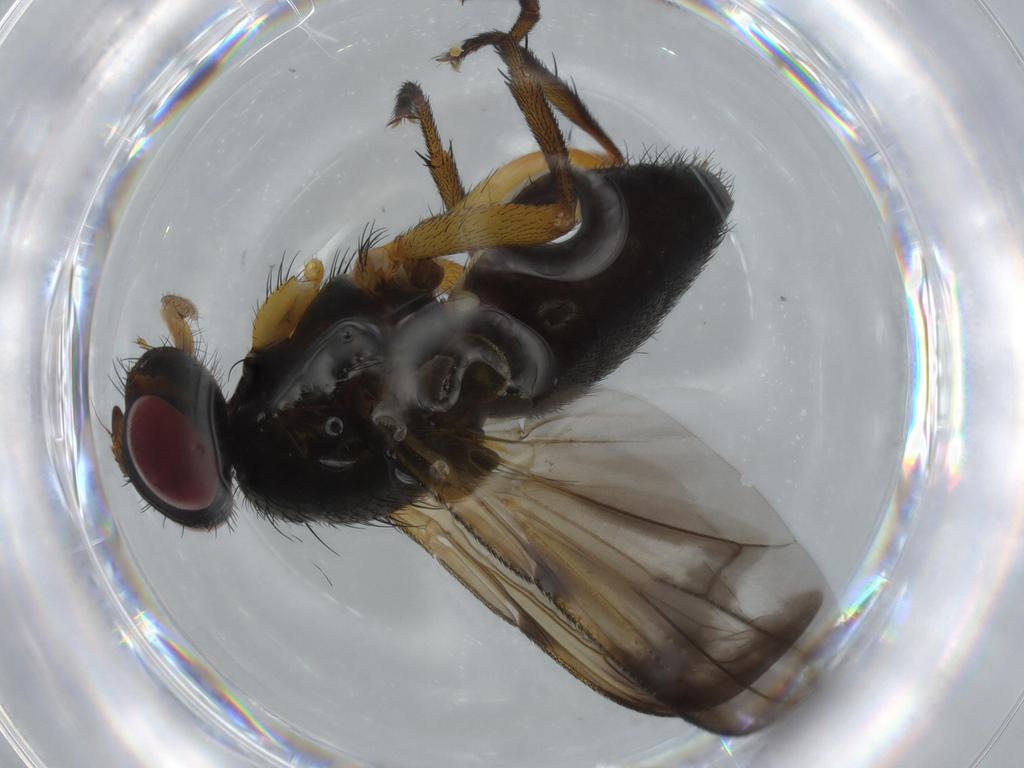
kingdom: Animalia
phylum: Arthropoda
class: Insecta
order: Diptera
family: Calliphoridae
